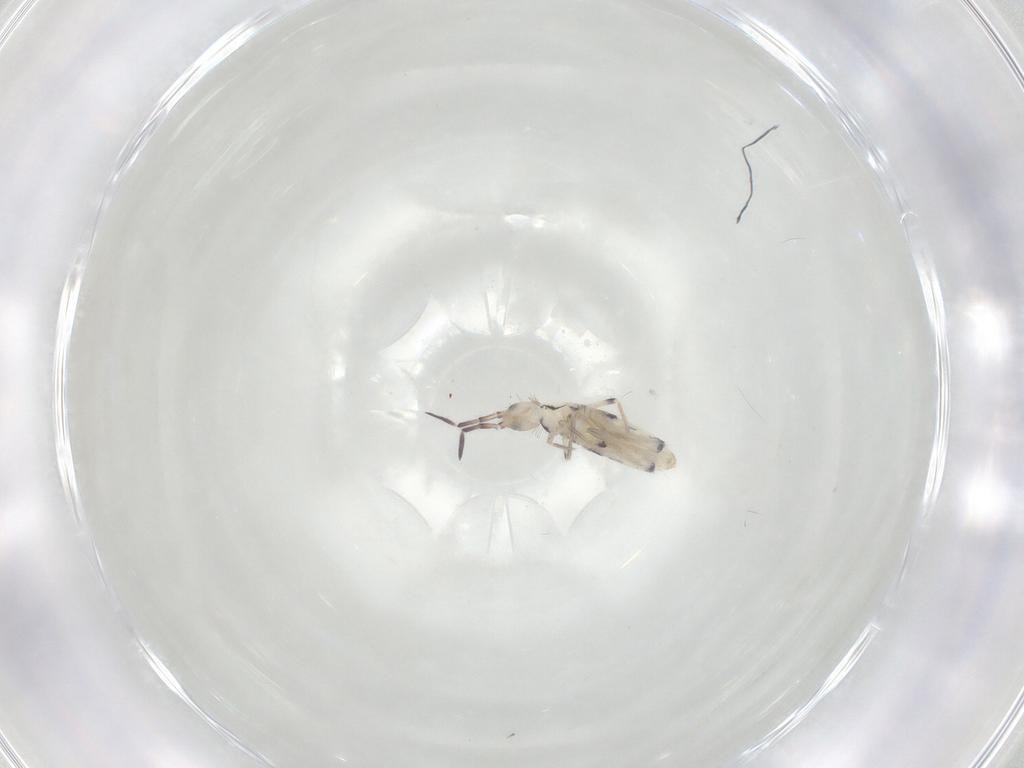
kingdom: Animalia
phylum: Arthropoda
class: Collembola
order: Entomobryomorpha
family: Entomobryidae
